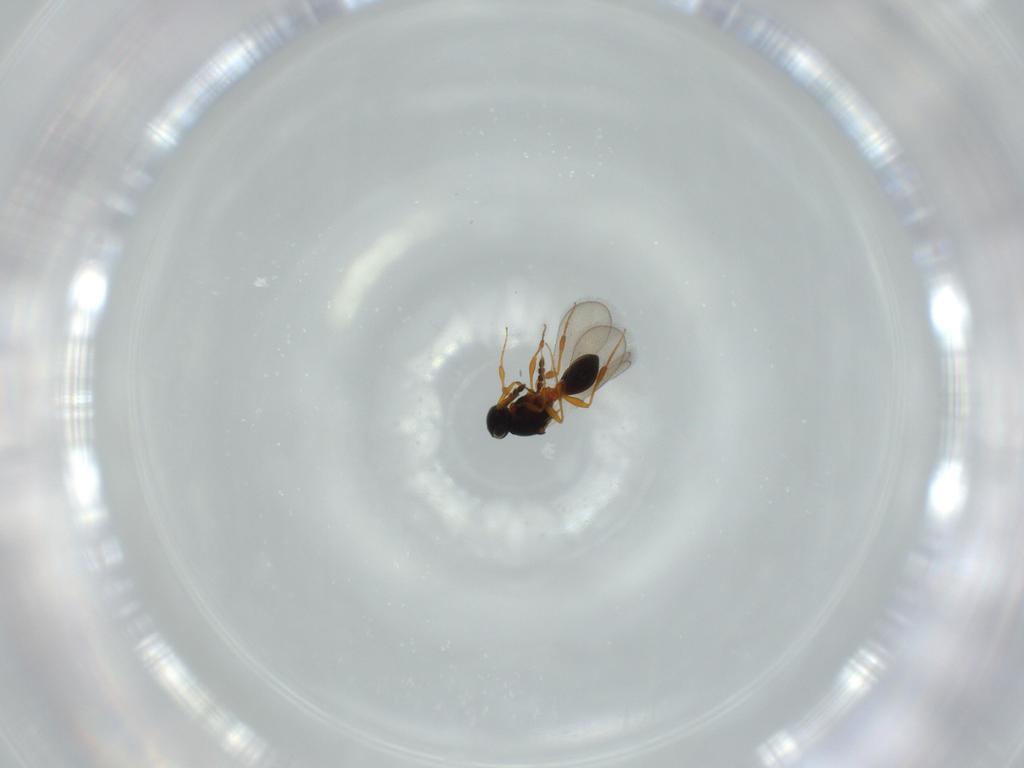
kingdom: Animalia
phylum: Arthropoda
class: Insecta
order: Hymenoptera
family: Platygastridae
